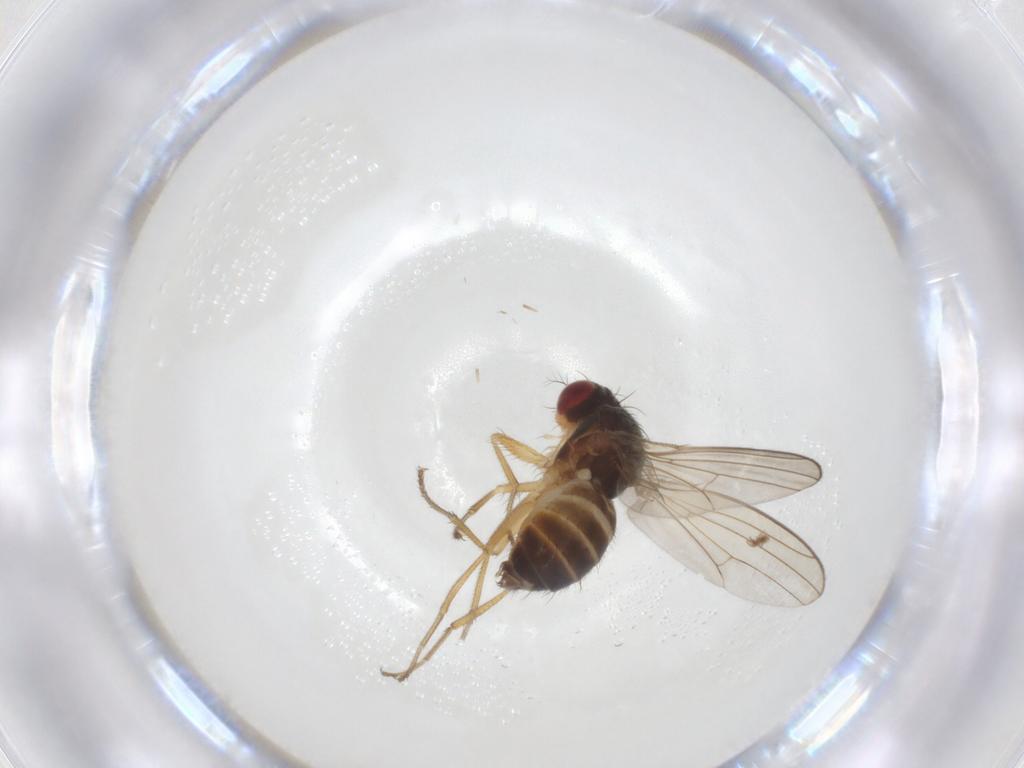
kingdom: Animalia
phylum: Arthropoda
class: Insecta
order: Diptera
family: Drosophilidae
